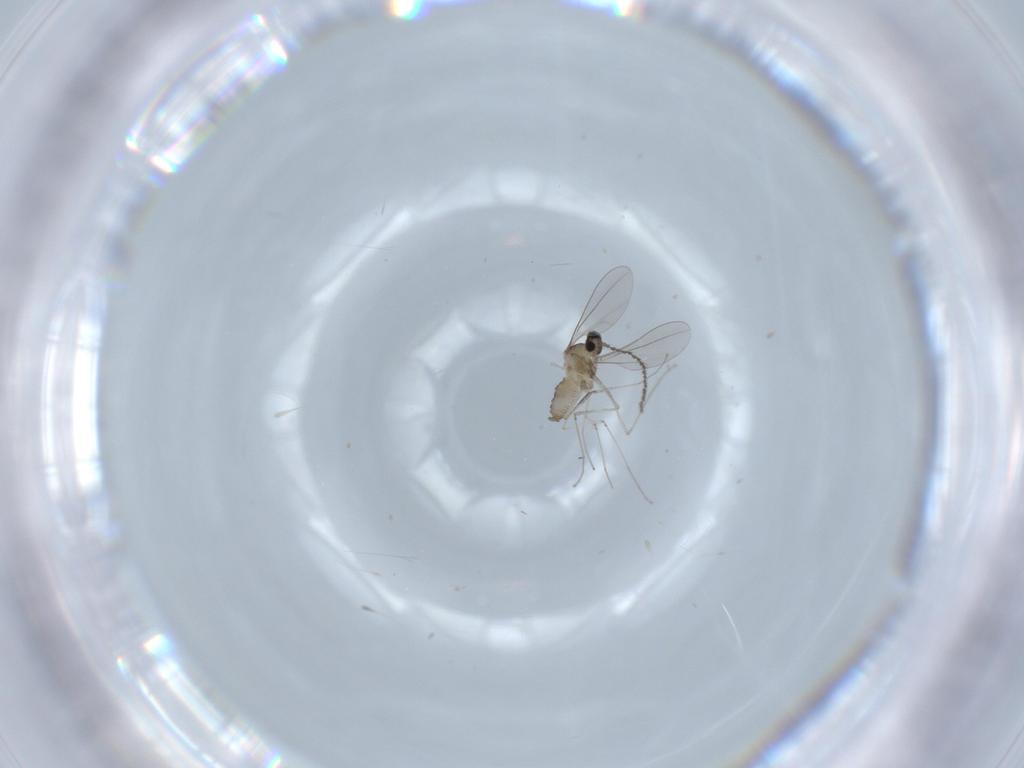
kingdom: Animalia
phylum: Arthropoda
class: Insecta
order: Diptera
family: Cecidomyiidae
